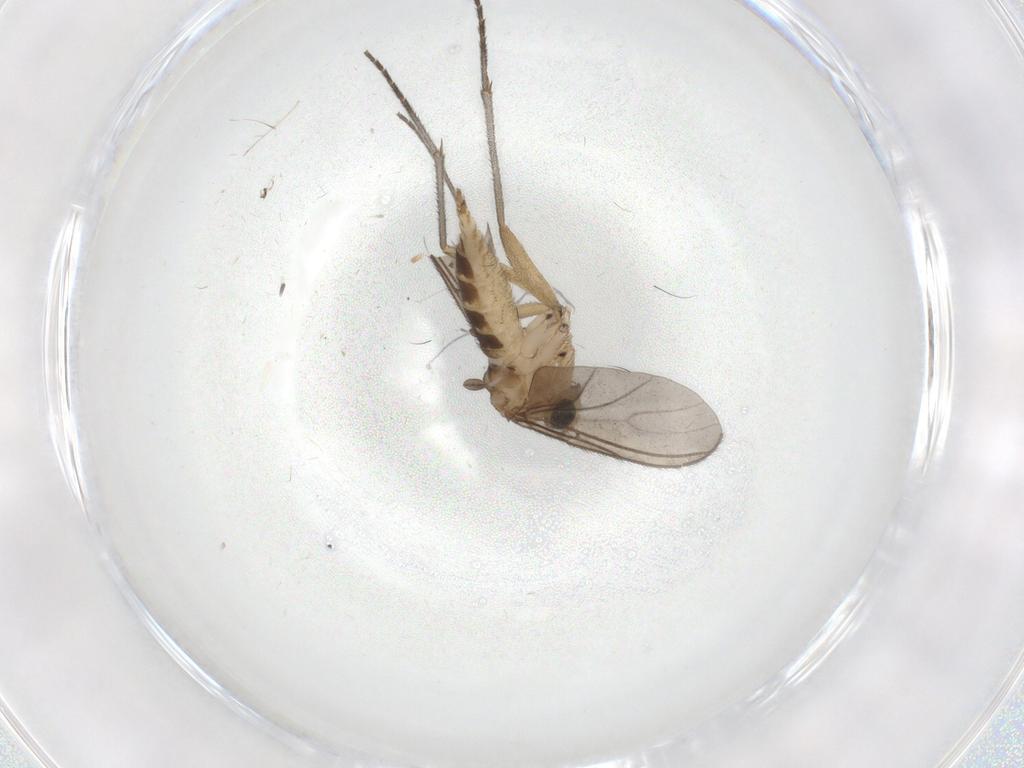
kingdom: Animalia
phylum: Arthropoda
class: Insecta
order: Diptera
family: Sciaridae
